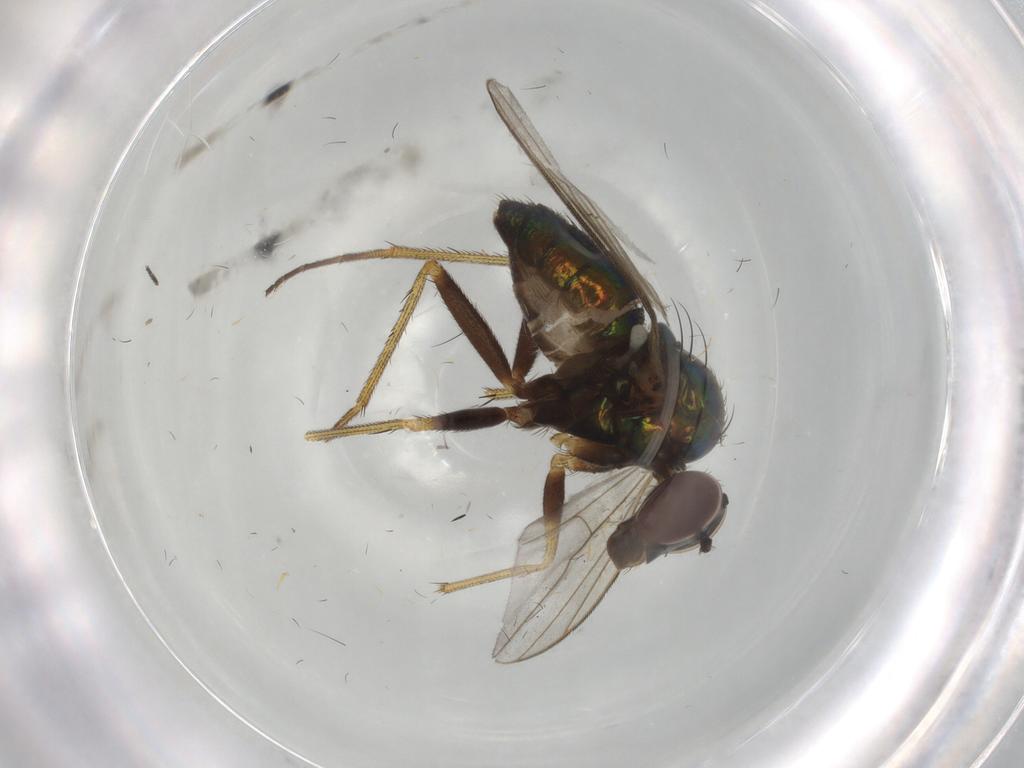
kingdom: Animalia
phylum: Arthropoda
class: Insecta
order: Diptera
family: Dolichopodidae
